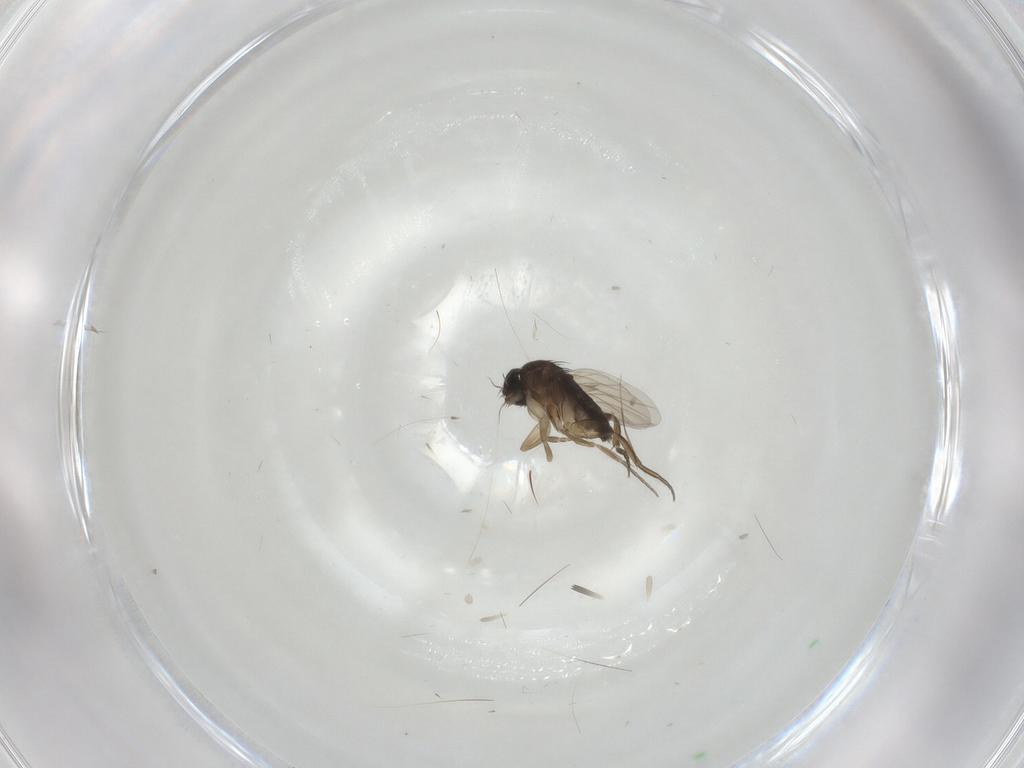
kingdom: Animalia
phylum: Arthropoda
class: Insecta
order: Diptera
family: Phoridae
